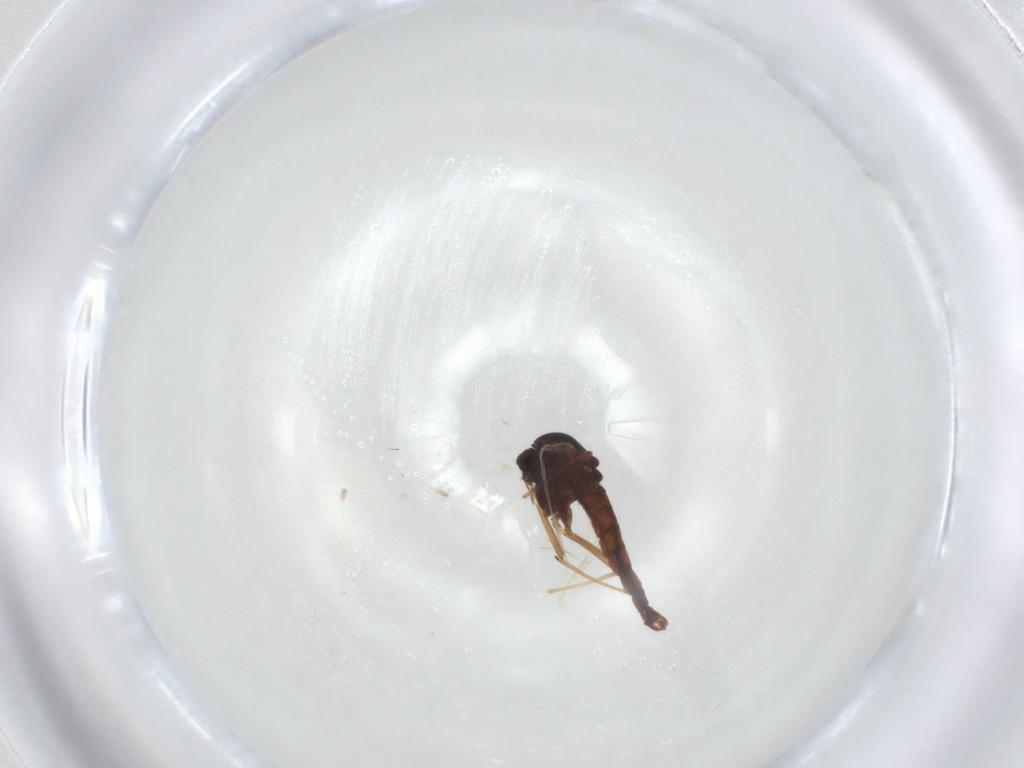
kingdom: Animalia
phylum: Arthropoda
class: Insecta
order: Diptera
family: Chironomidae
